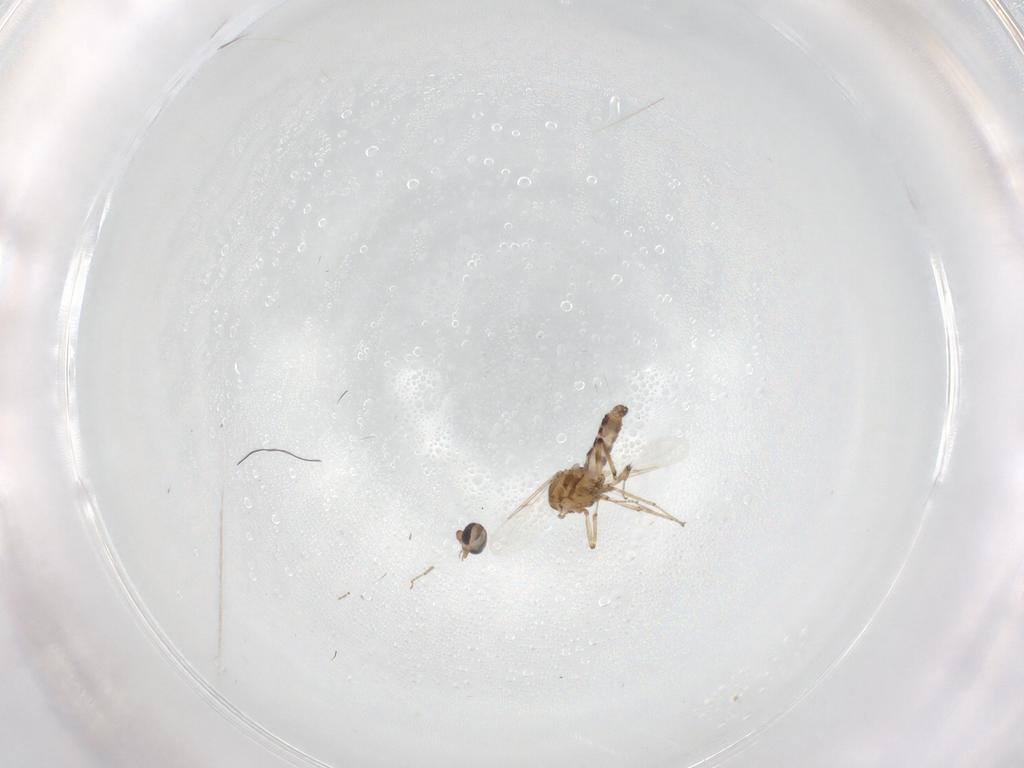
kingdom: Animalia
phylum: Arthropoda
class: Insecta
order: Diptera
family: Ceratopogonidae
